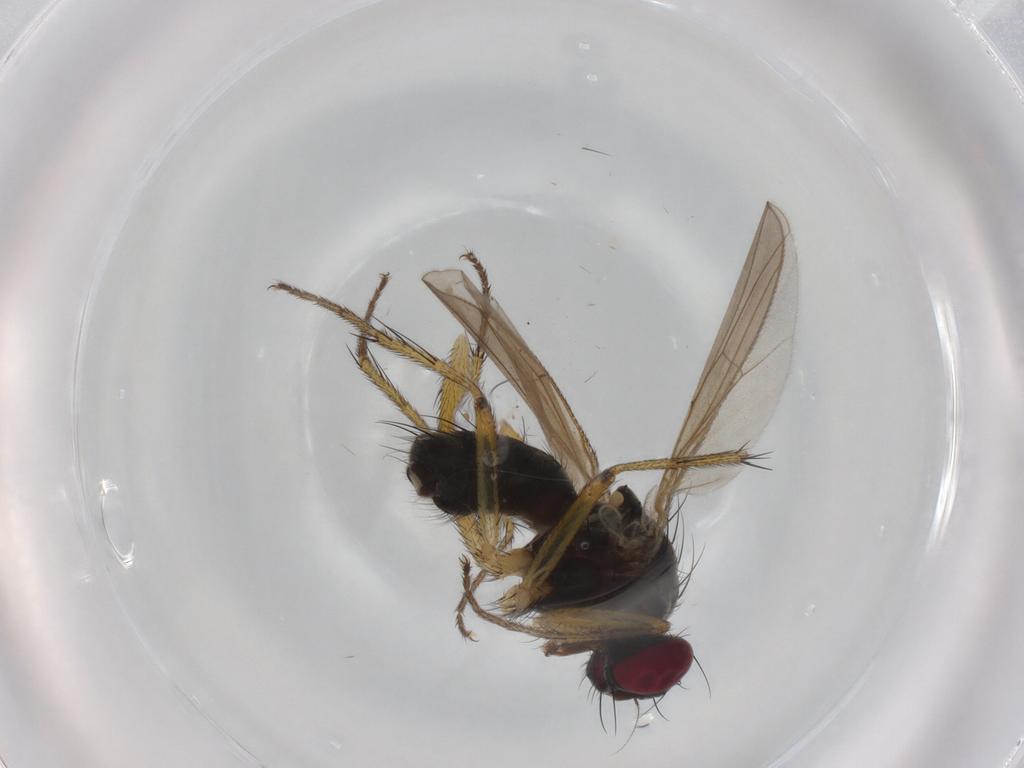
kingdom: Animalia
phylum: Arthropoda
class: Insecta
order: Diptera
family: Muscidae
